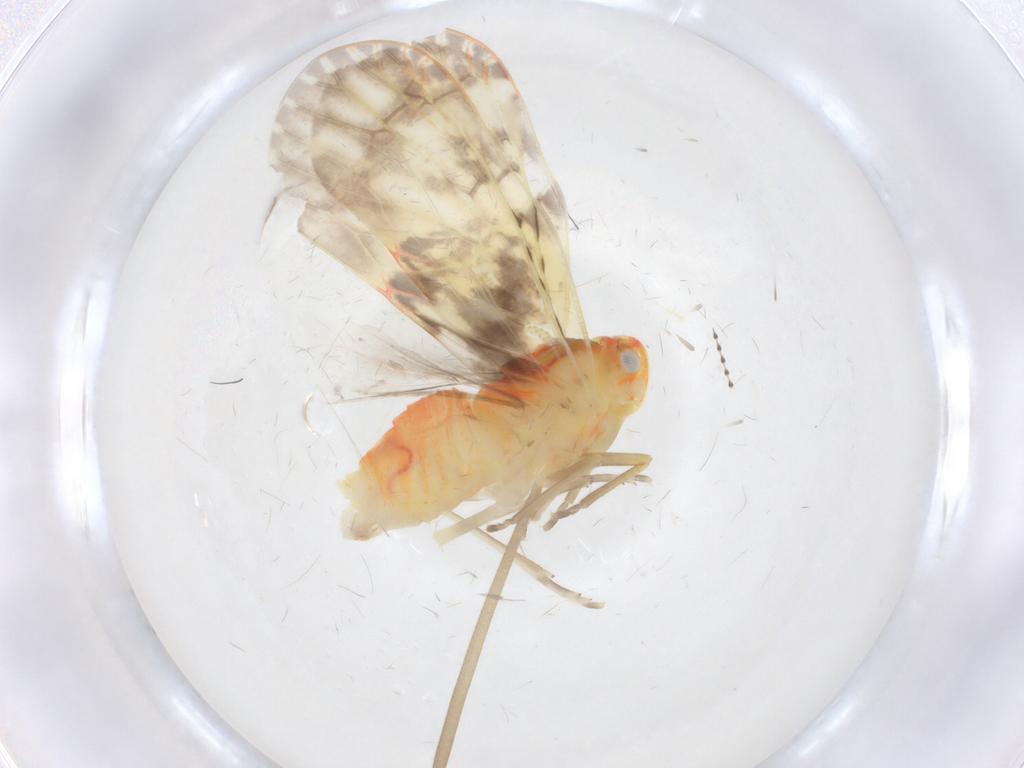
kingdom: Animalia
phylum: Arthropoda
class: Insecta
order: Hemiptera
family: Derbidae
